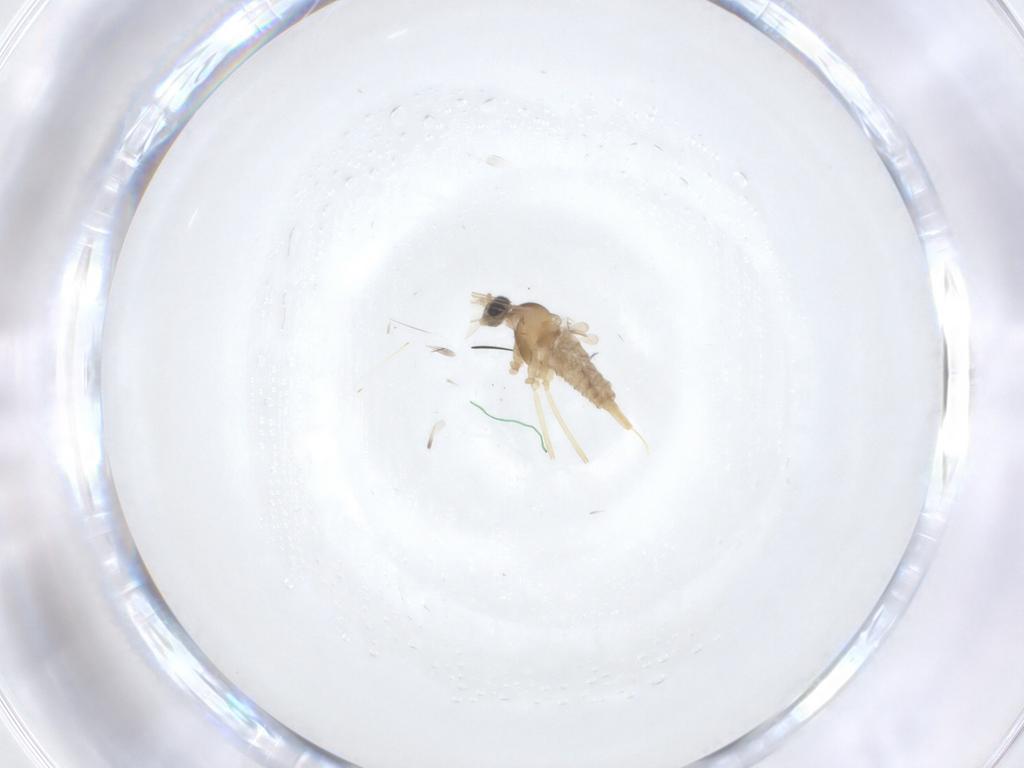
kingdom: Animalia
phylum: Arthropoda
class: Insecta
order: Diptera
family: Cecidomyiidae
